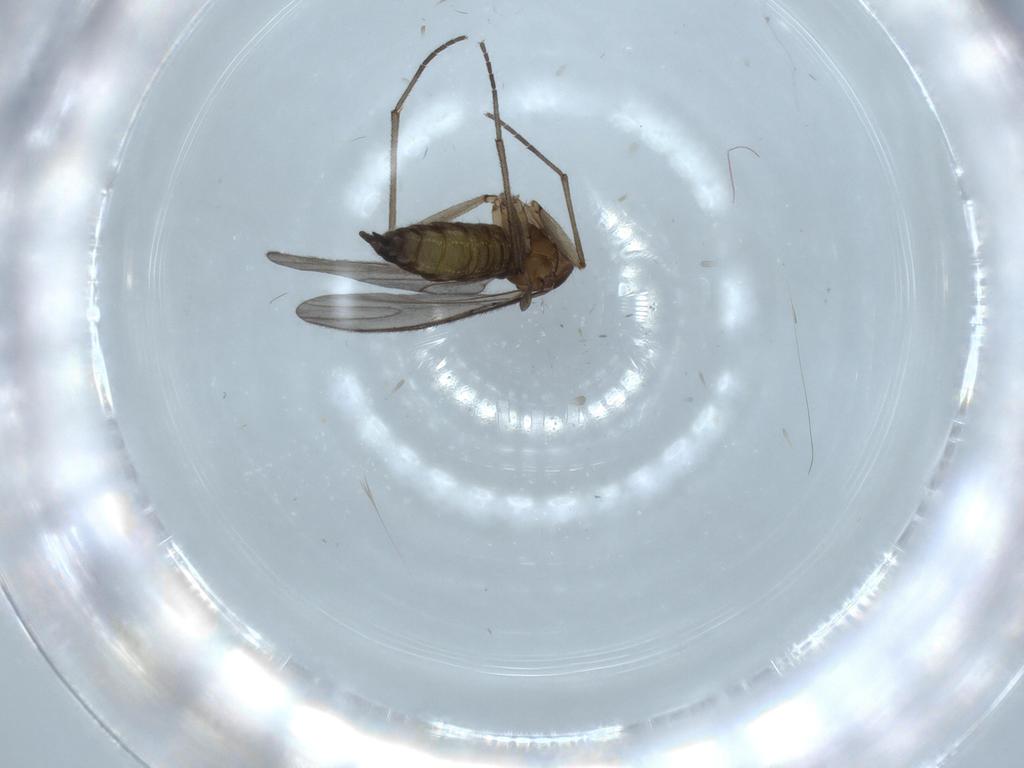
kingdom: Animalia
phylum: Arthropoda
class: Insecta
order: Diptera
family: Sciaridae
